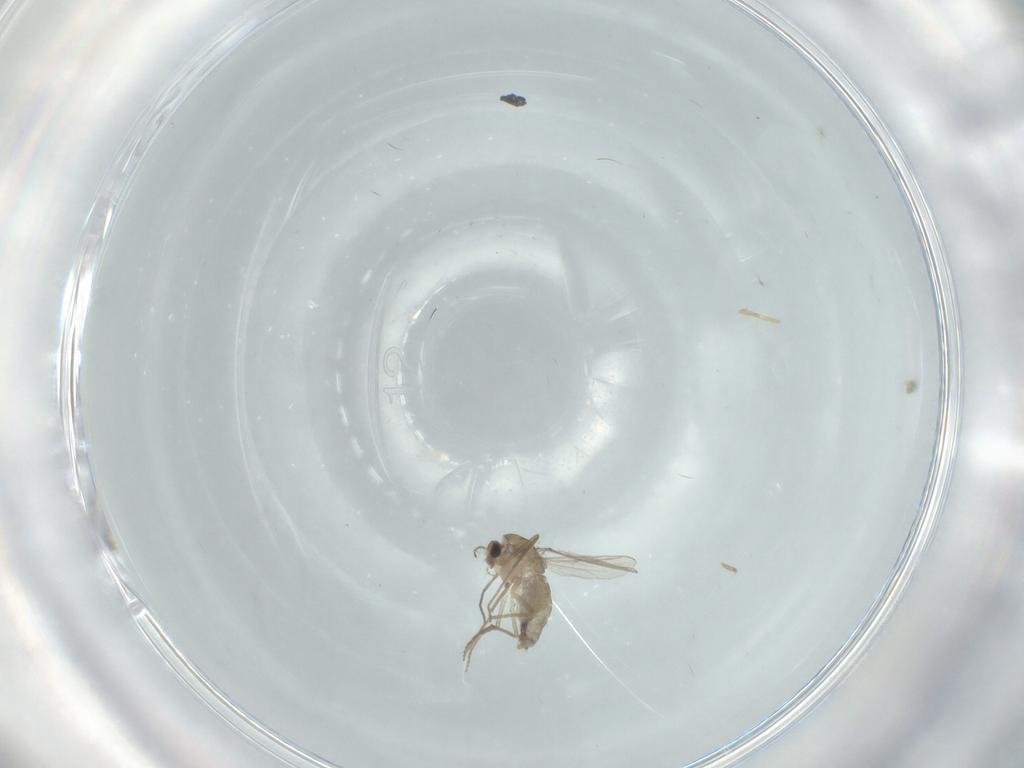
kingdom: Animalia
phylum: Arthropoda
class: Insecta
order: Diptera
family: Chironomidae
